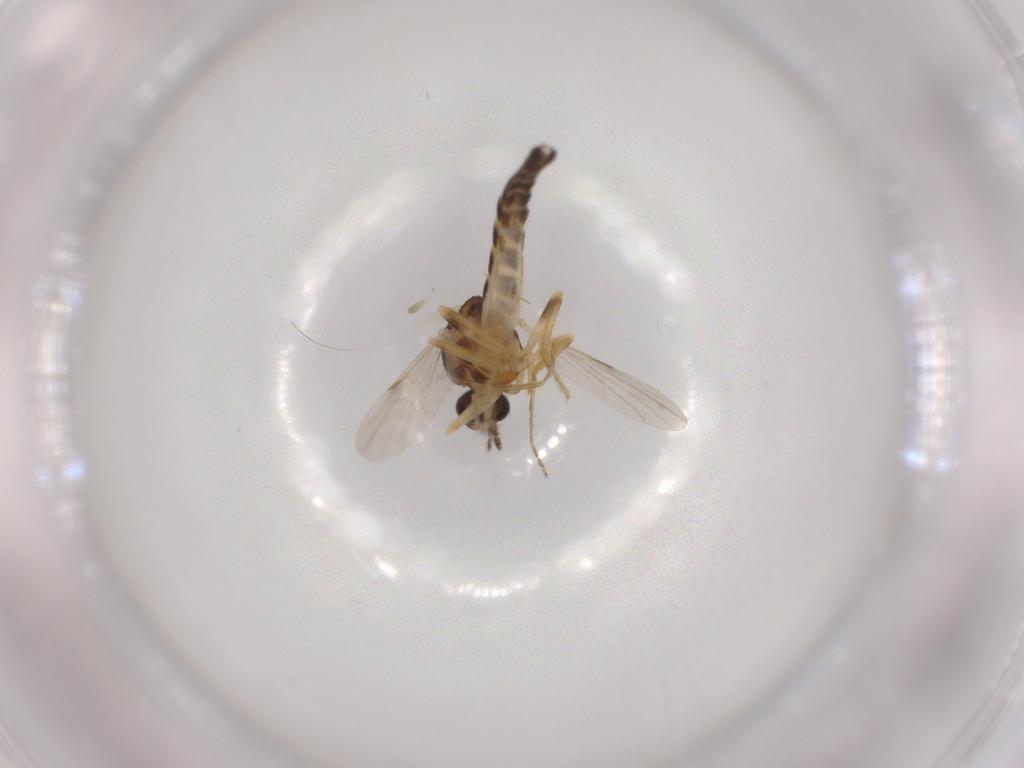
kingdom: Animalia
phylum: Arthropoda
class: Insecta
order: Diptera
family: Ceratopogonidae
